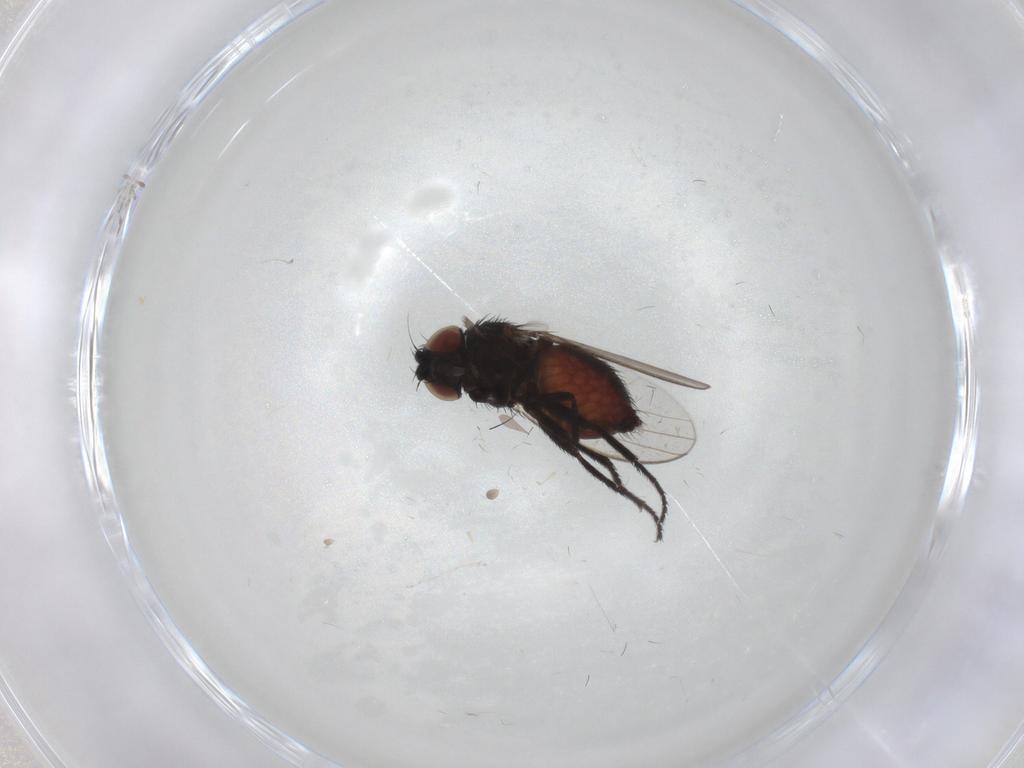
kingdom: Animalia
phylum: Arthropoda
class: Insecta
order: Diptera
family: Milichiidae
